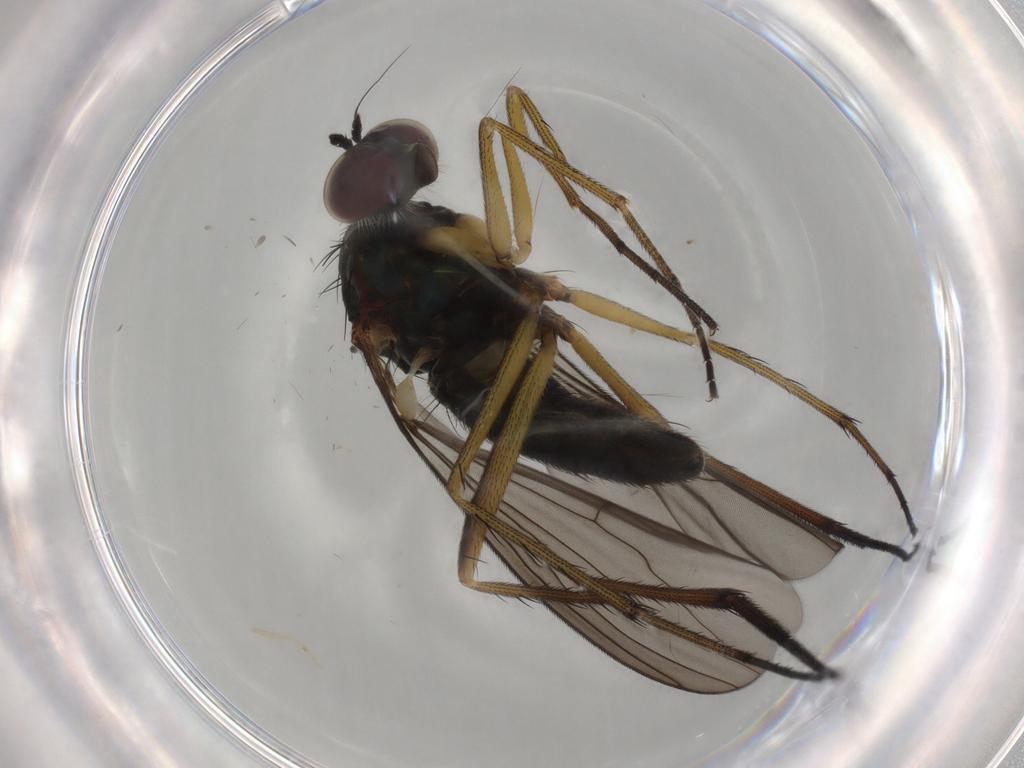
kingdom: Animalia
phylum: Arthropoda
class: Insecta
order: Diptera
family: Dolichopodidae
